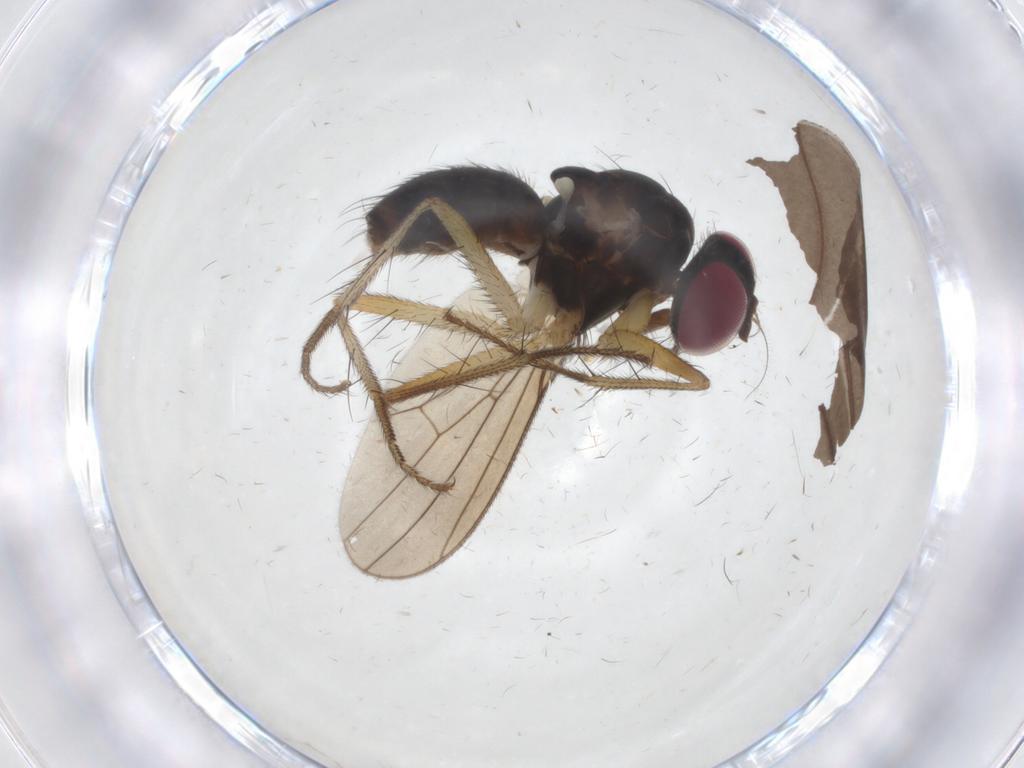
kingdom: Animalia
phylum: Arthropoda
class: Insecta
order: Diptera
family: Anthomyiidae
